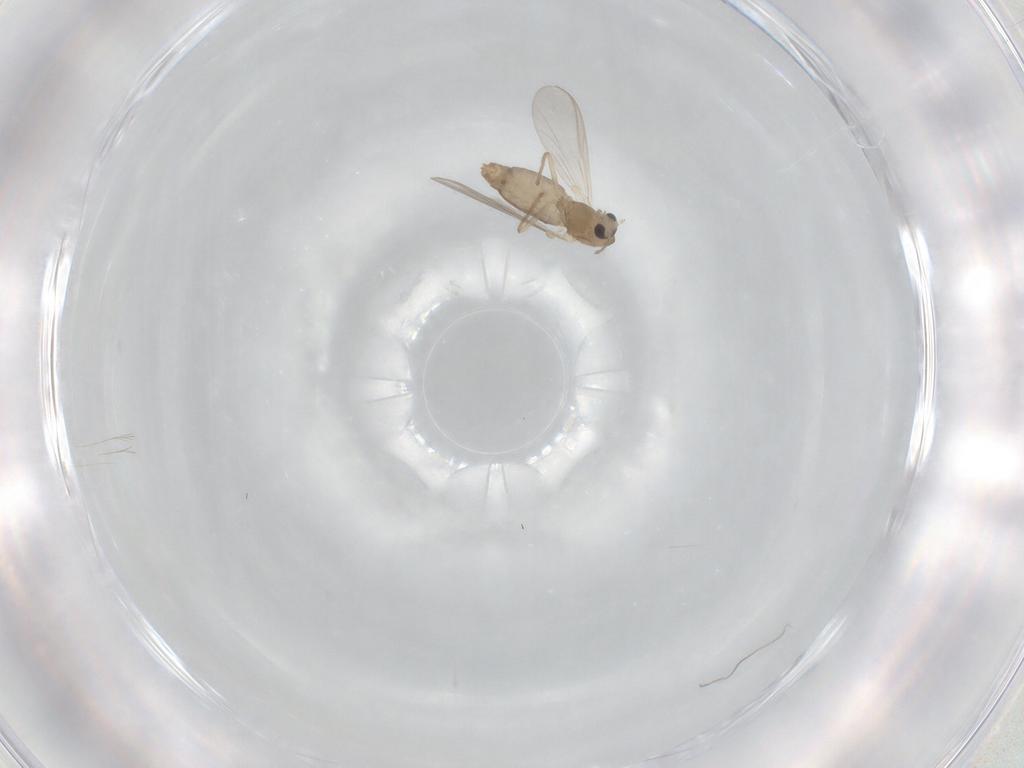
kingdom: Animalia
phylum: Arthropoda
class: Insecta
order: Diptera
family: Chironomidae
